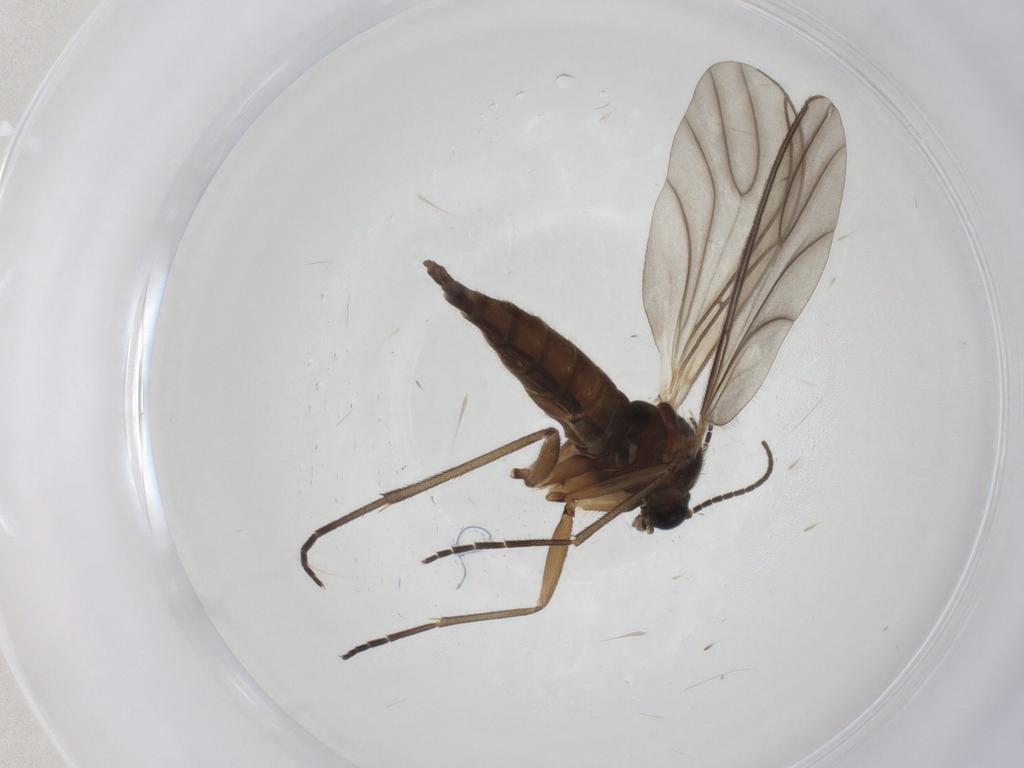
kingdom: Animalia
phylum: Arthropoda
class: Insecta
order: Diptera
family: Sciaridae
